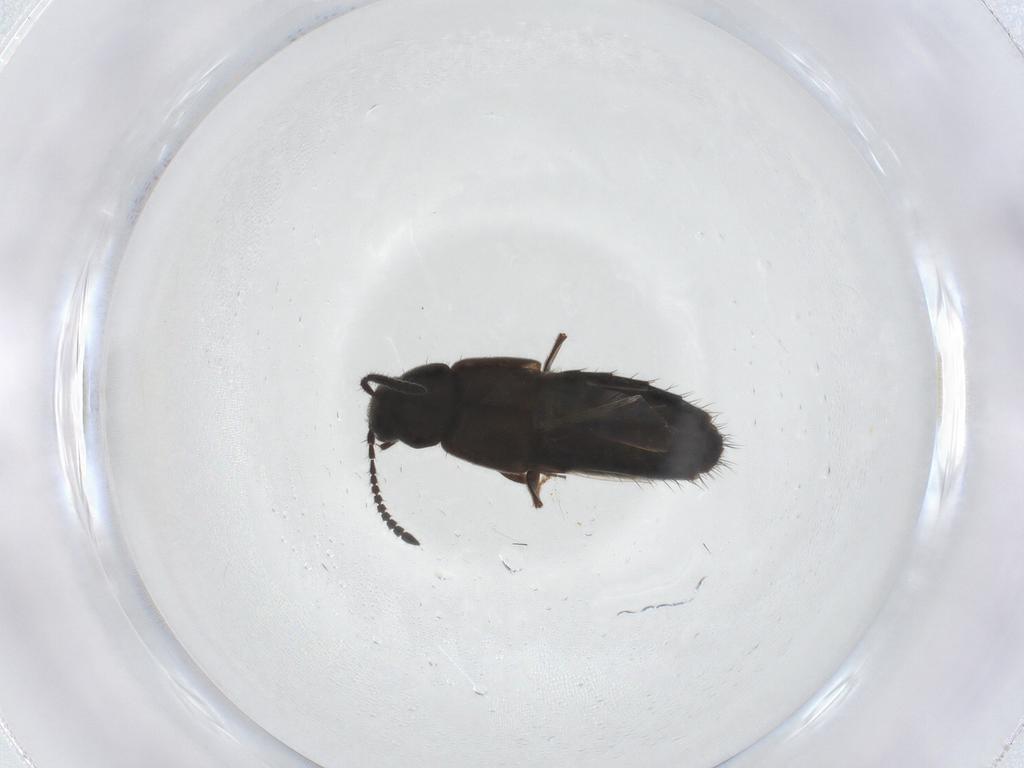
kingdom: Animalia
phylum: Arthropoda
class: Insecta
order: Coleoptera
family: Staphylinidae
